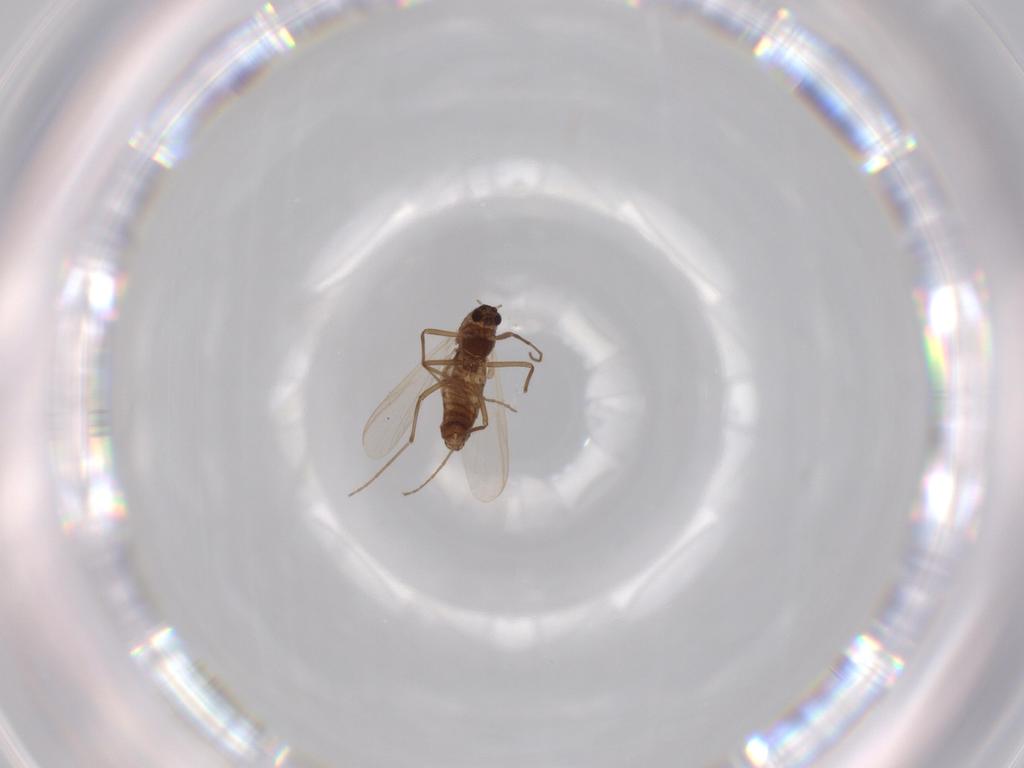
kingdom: Animalia
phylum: Arthropoda
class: Insecta
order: Diptera
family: Chironomidae
